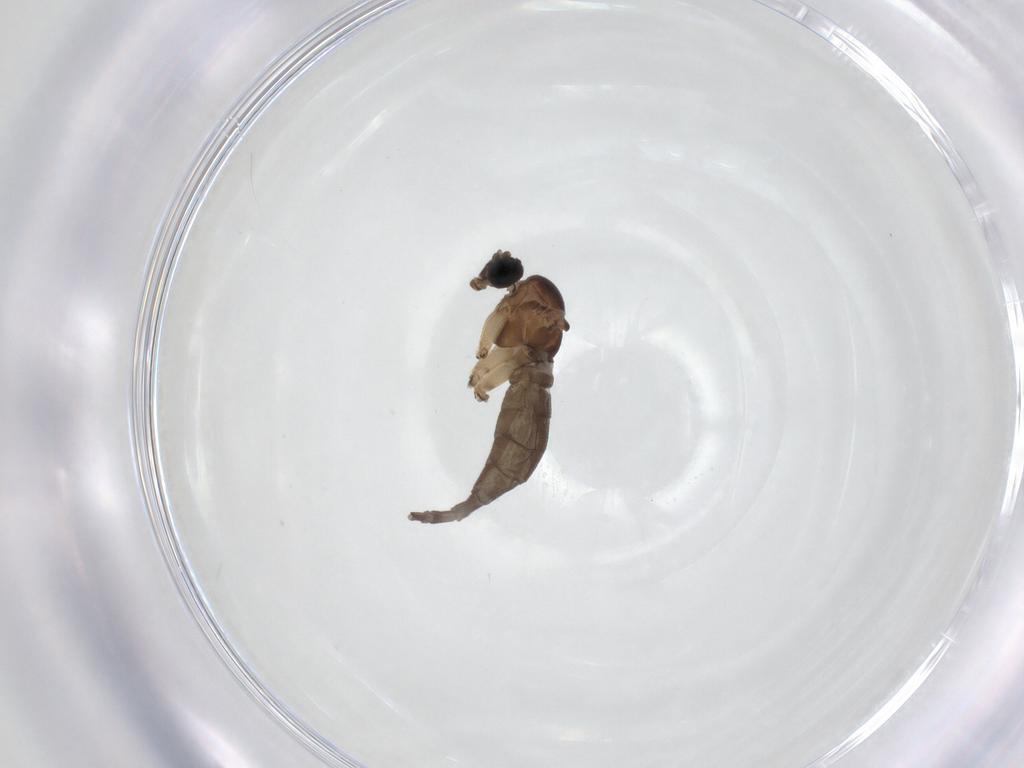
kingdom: Animalia
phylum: Arthropoda
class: Insecta
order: Diptera
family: Sciaridae
